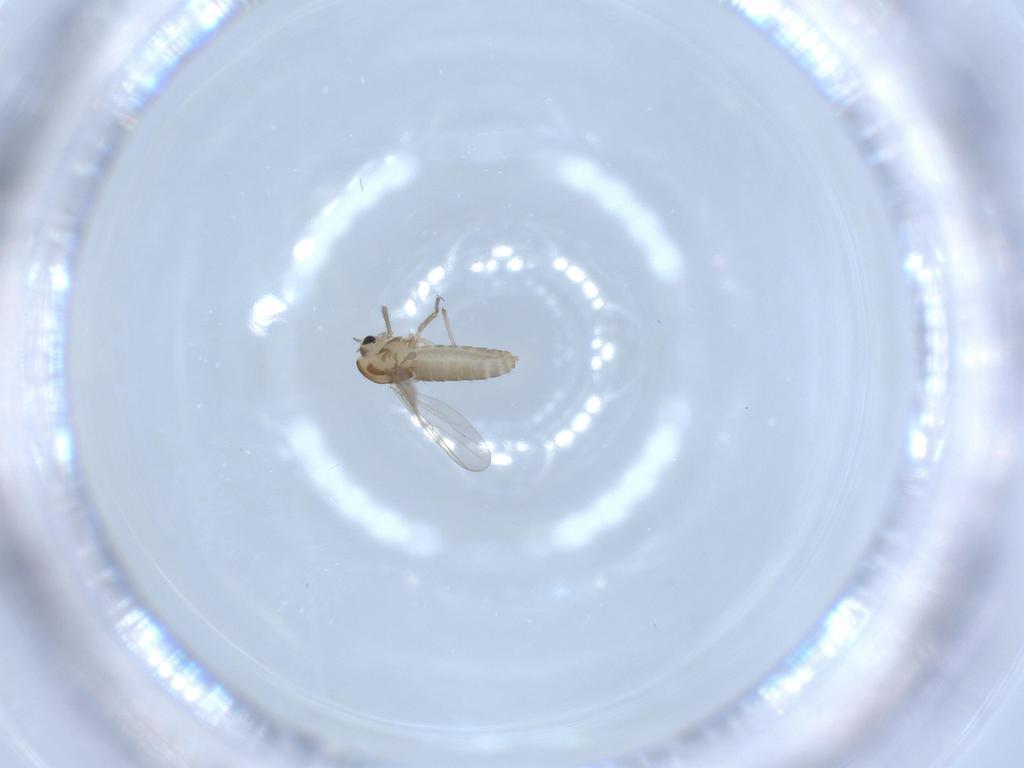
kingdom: Animalia
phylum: Arthropoda
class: Insecta
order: Diptera
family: Chironomidae
